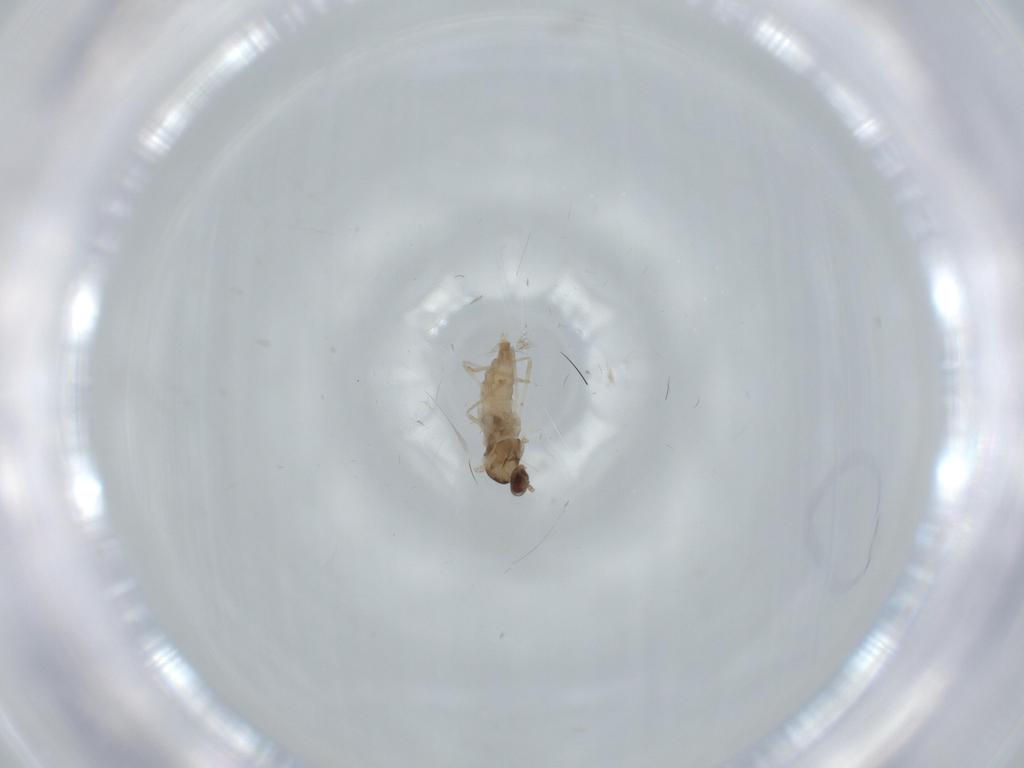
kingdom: Animalia
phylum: Arthropoda
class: Insecta
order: Diptera
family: Cecidomyiidae
